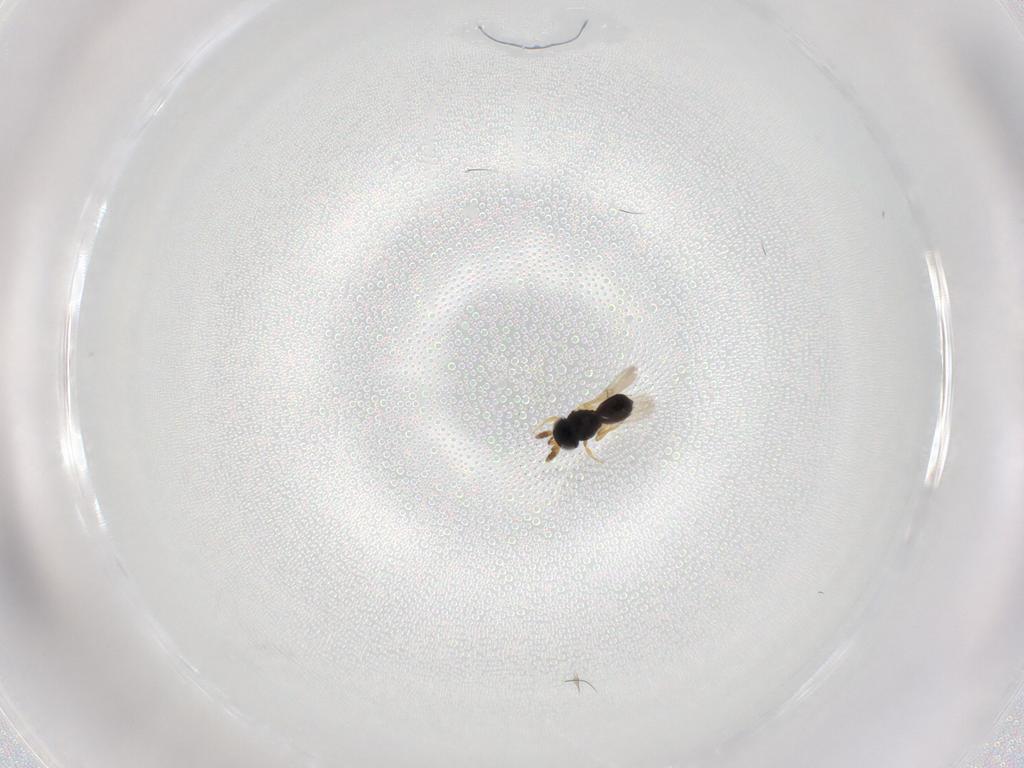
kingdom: Animalia
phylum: Arthropoda
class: Insecta
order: Hymenoptera
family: Scelionidae
